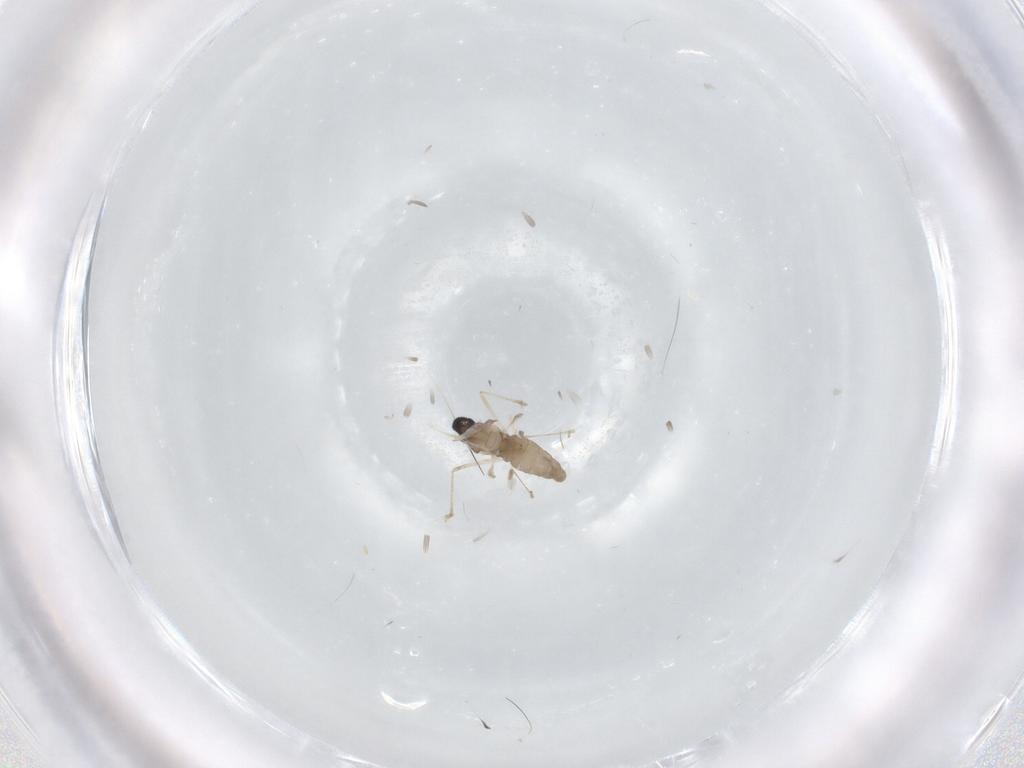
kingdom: Animalia
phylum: Arthropoda
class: Insecta
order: Diptera
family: Cecidomyiidae
